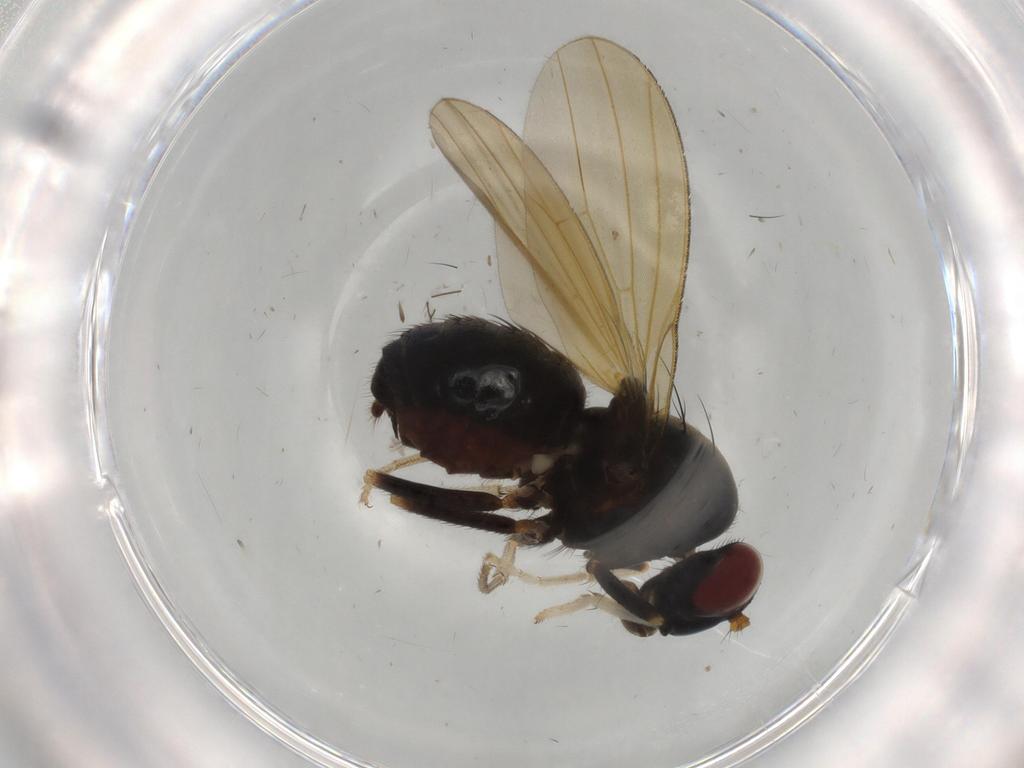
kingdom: Animalia
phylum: Arthropoda
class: Insecta
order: Diptera
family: Lauxaniidae
